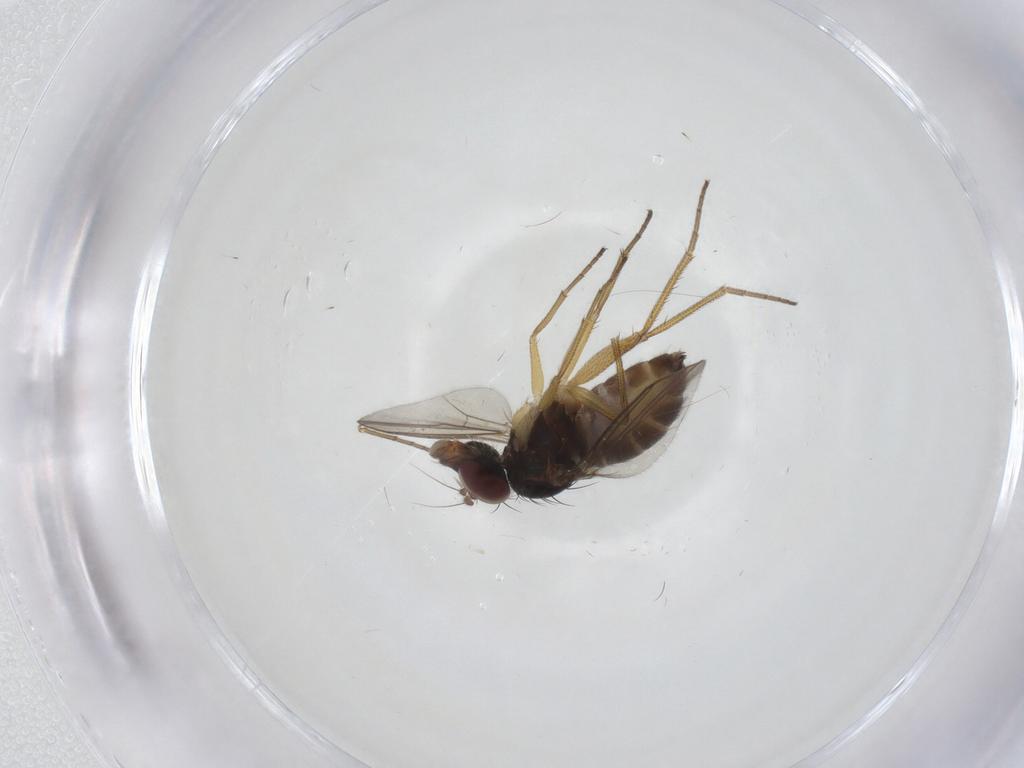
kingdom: Animalia
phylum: Arthropoda
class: Insecta
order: Diptera
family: Dolichopodidae
